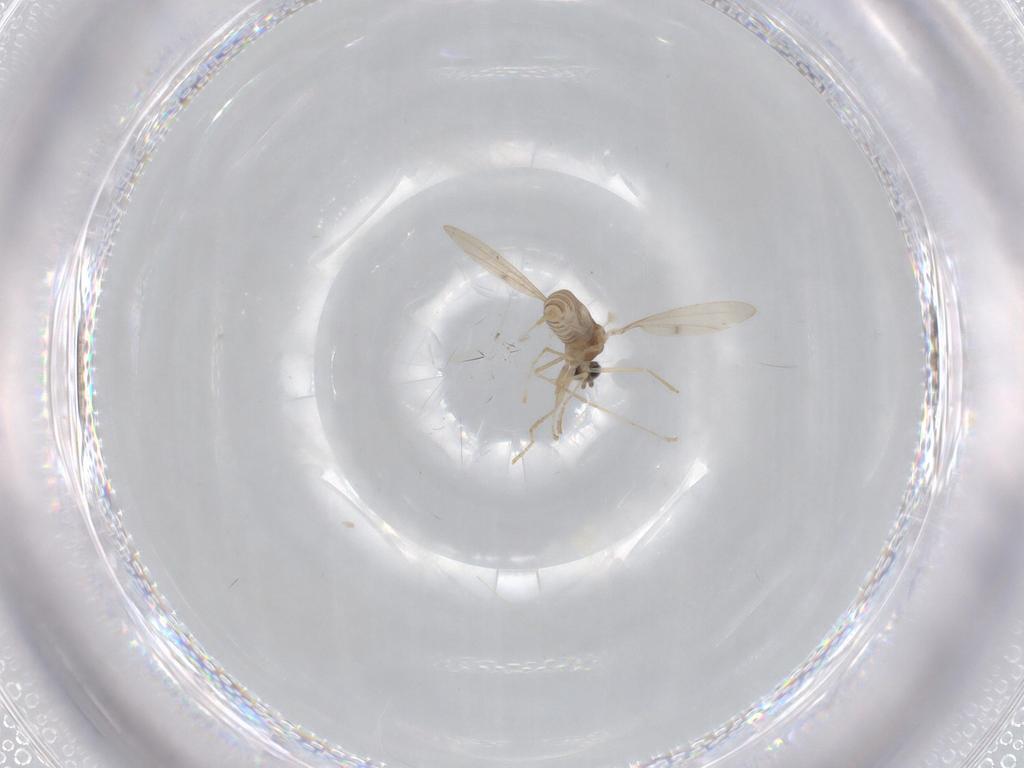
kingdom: Animalia
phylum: Arthropoda
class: Insecta
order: Diptera
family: Cecidomyiidae
